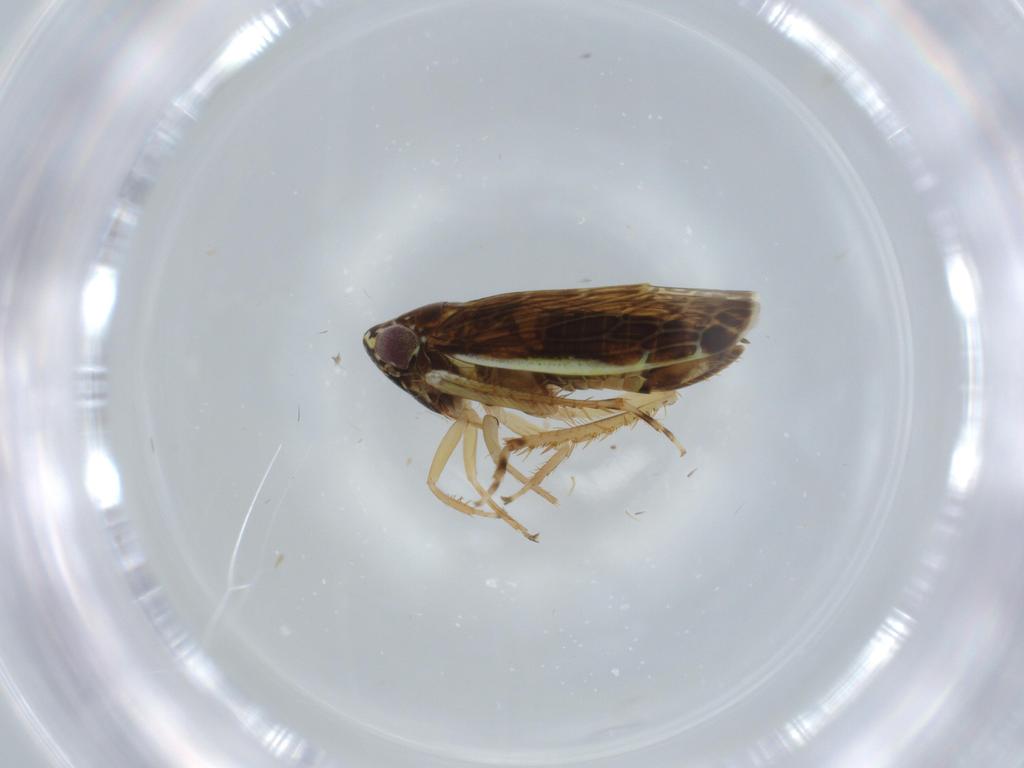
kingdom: Animalia
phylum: Arthropoda
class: Insecta
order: Hemiptera
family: Cicadellidae
